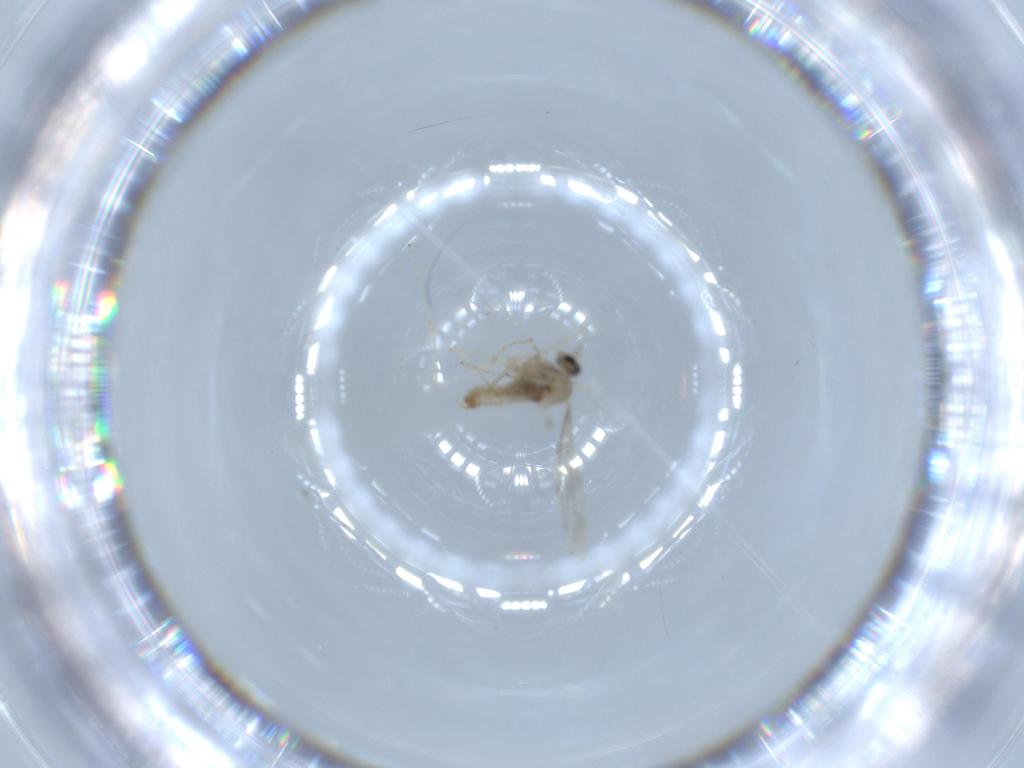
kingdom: Animalia
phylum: Arthropoda
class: Insecta
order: Diptera
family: Cecidomyiidae
